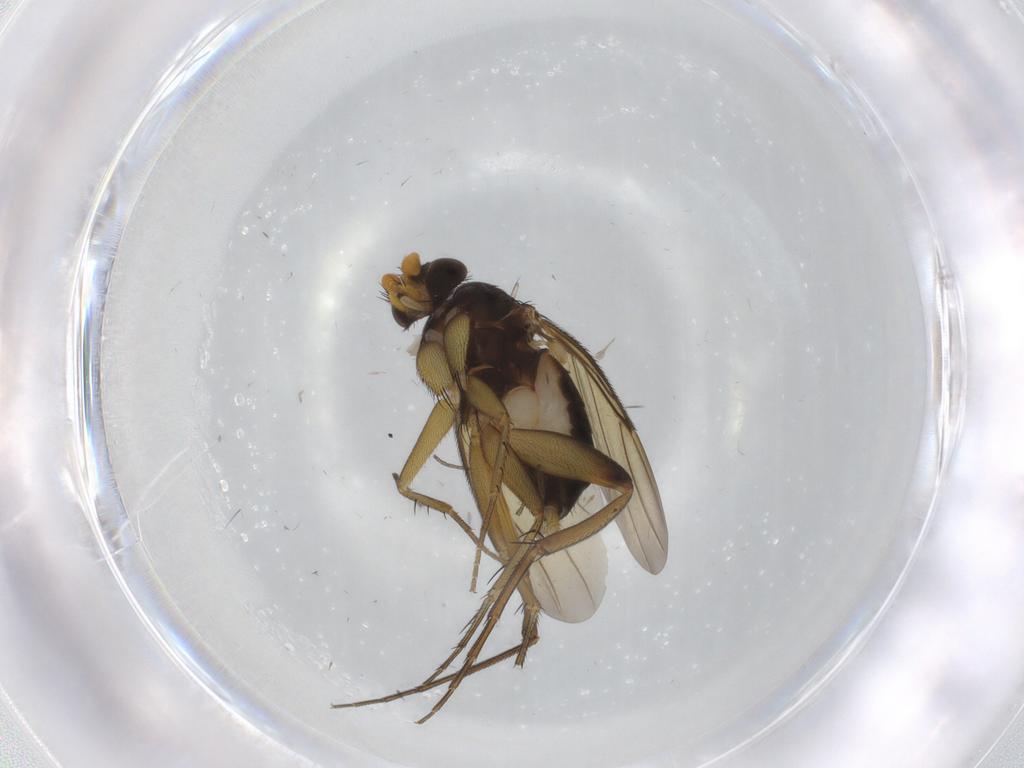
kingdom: Animalia
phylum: Arthropoda
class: Insecta
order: Diptera
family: Phoridae
